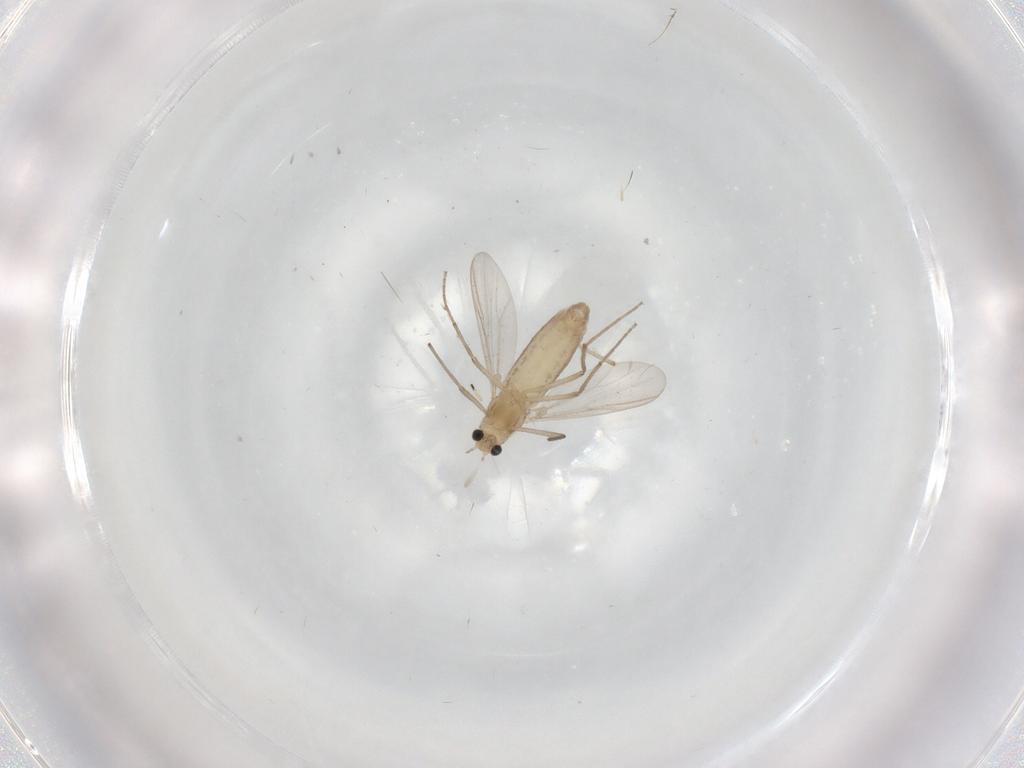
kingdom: Animalia
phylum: Arthropoda
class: Insecta
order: Diptera
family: Chironomidae
